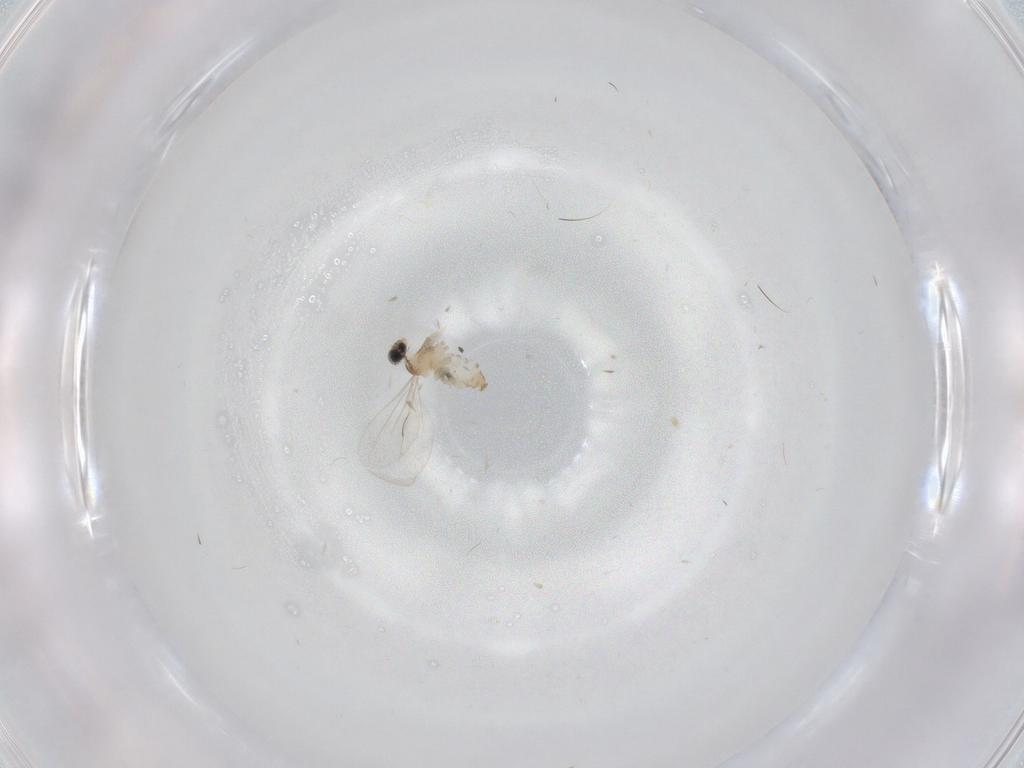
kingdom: Animalia
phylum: Arthropoda
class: Insecta
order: Diptera
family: Cecidomyiidae
